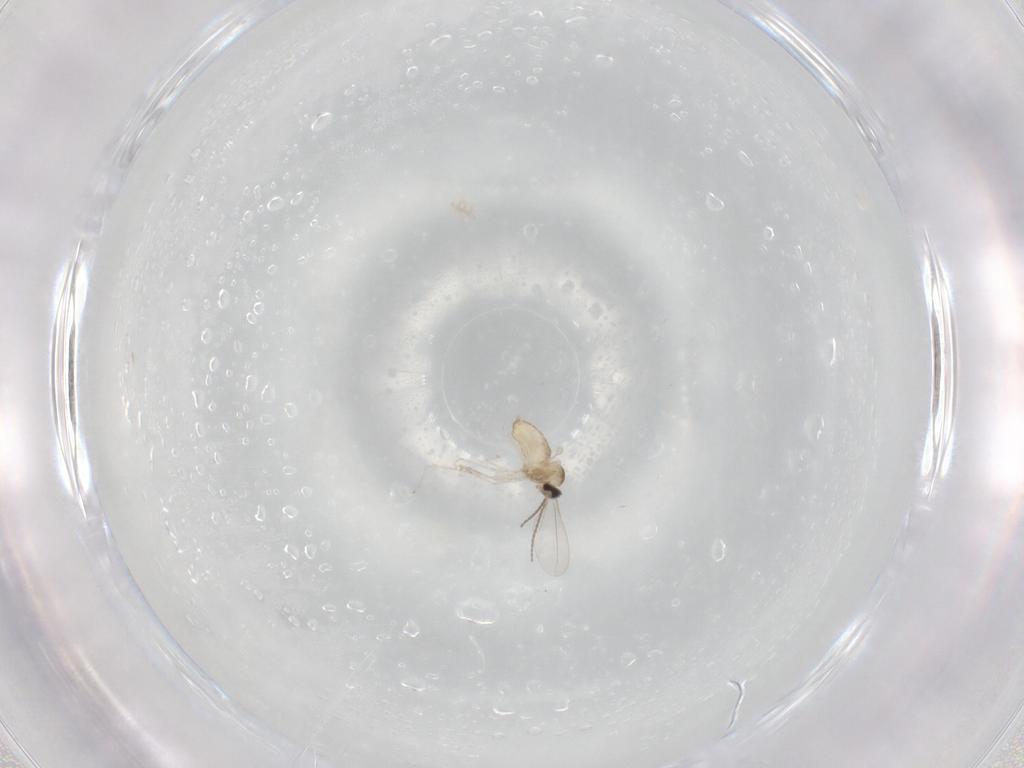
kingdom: Animalia
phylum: Arthropoda
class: Insecta
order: Diptera
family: Cecidomyiidae
